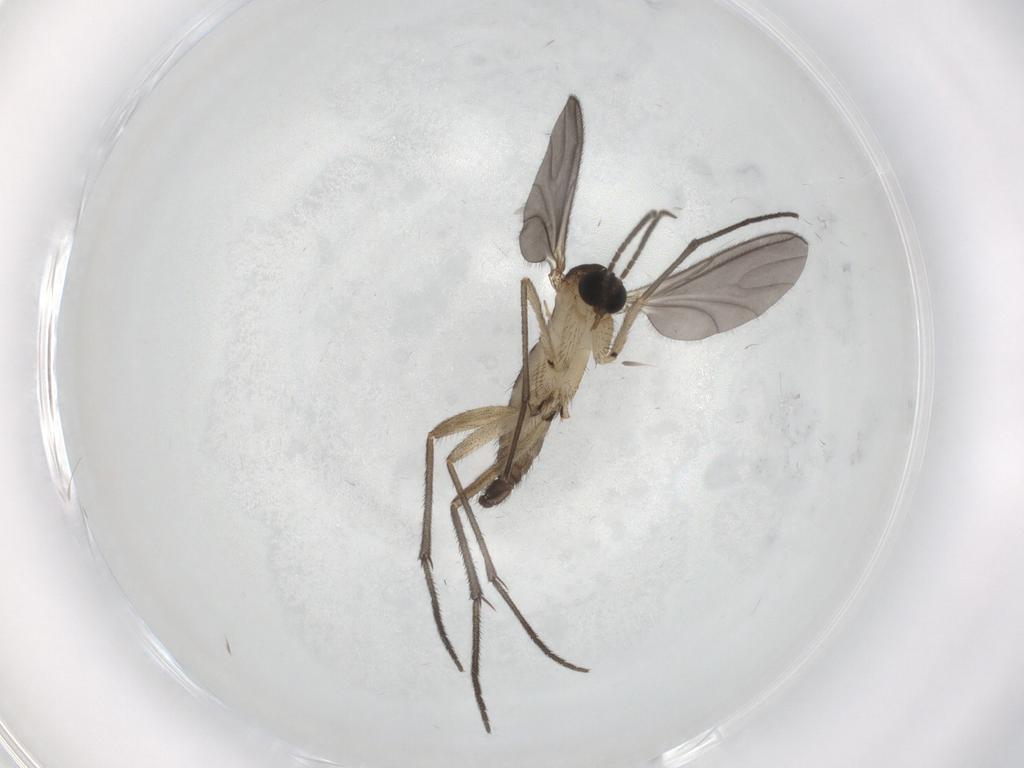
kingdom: Animalia
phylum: Arthropoda
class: Insecta
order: Diptera
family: Sciaridae
